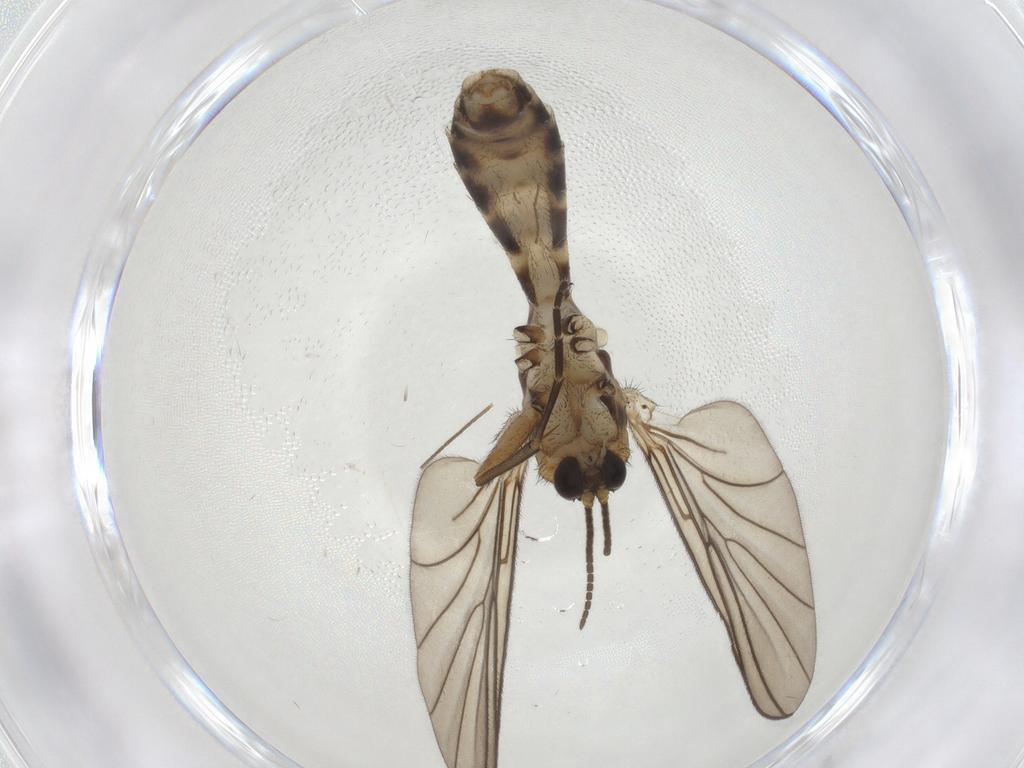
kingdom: Animalia
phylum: Arthropoda
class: Insecta
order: Diptera
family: Mycetophilidae
